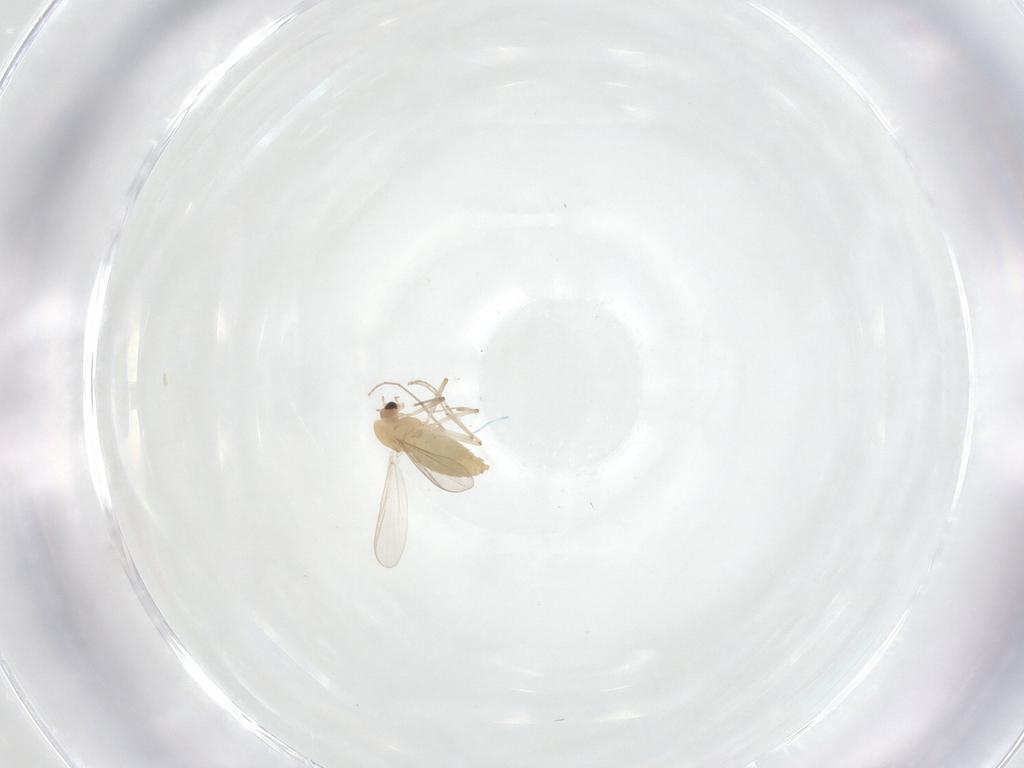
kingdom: Animalia
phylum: Arthropoda
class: Insecta
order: Diptera
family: Chironomidae
